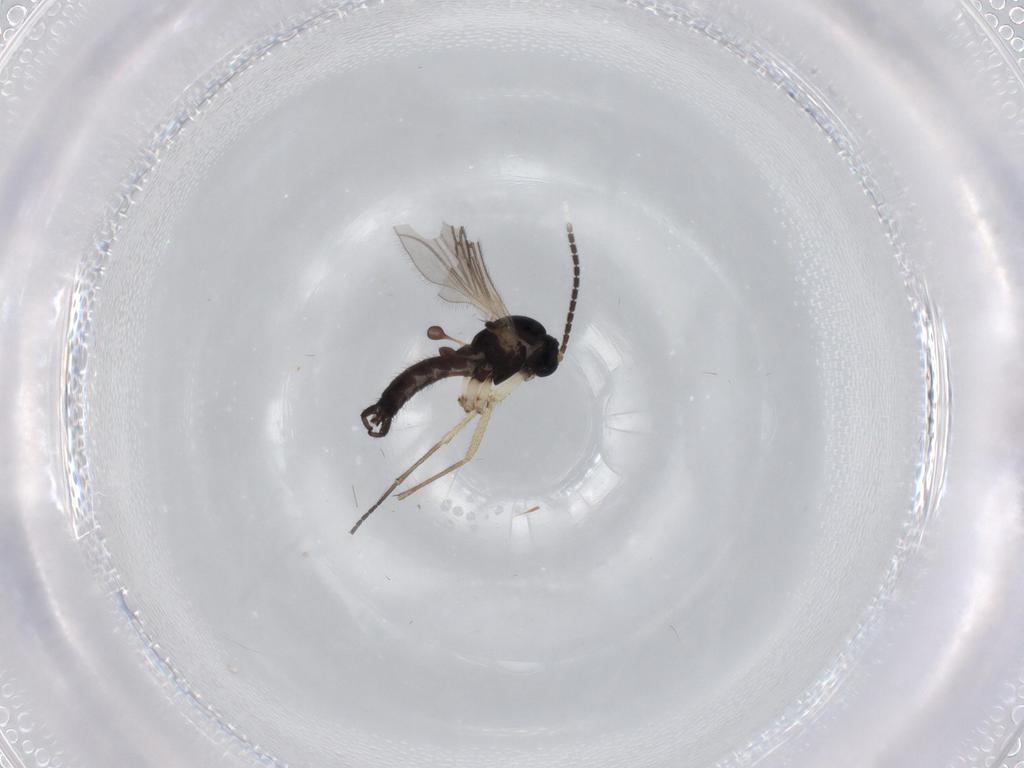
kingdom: Animalia
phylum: Arthropoda
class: Insecta
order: Diptera
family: Sciaridae
